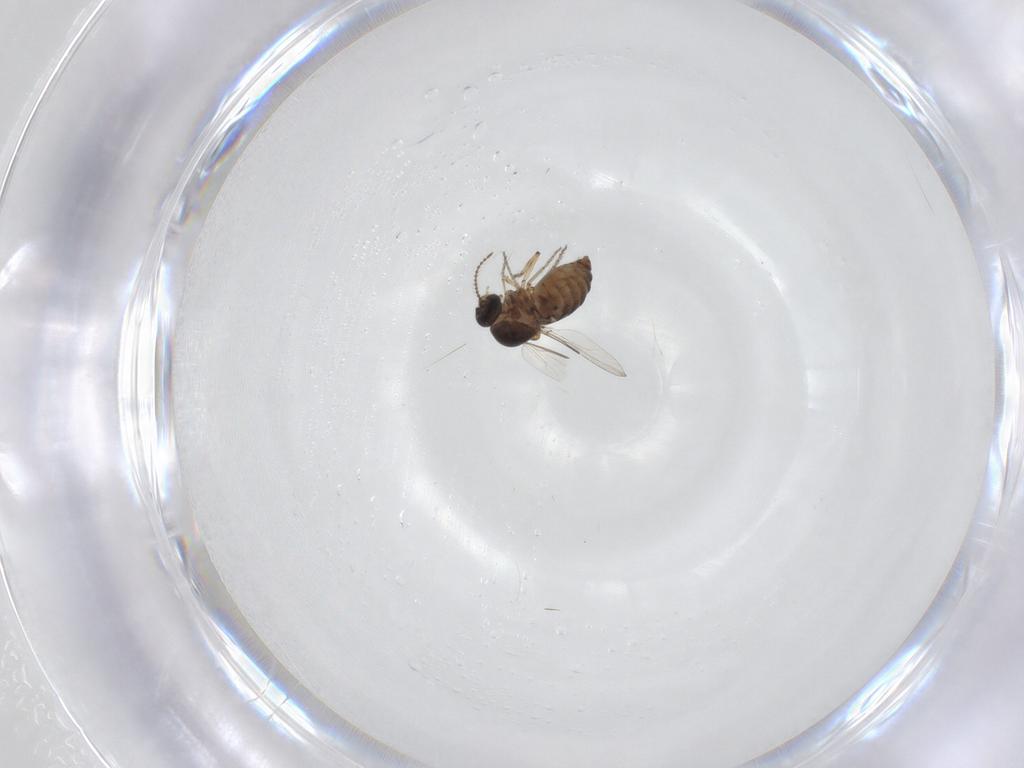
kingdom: Animalia
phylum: Arthropoda
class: Insecta
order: Diptera
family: Ceratopogonidae
